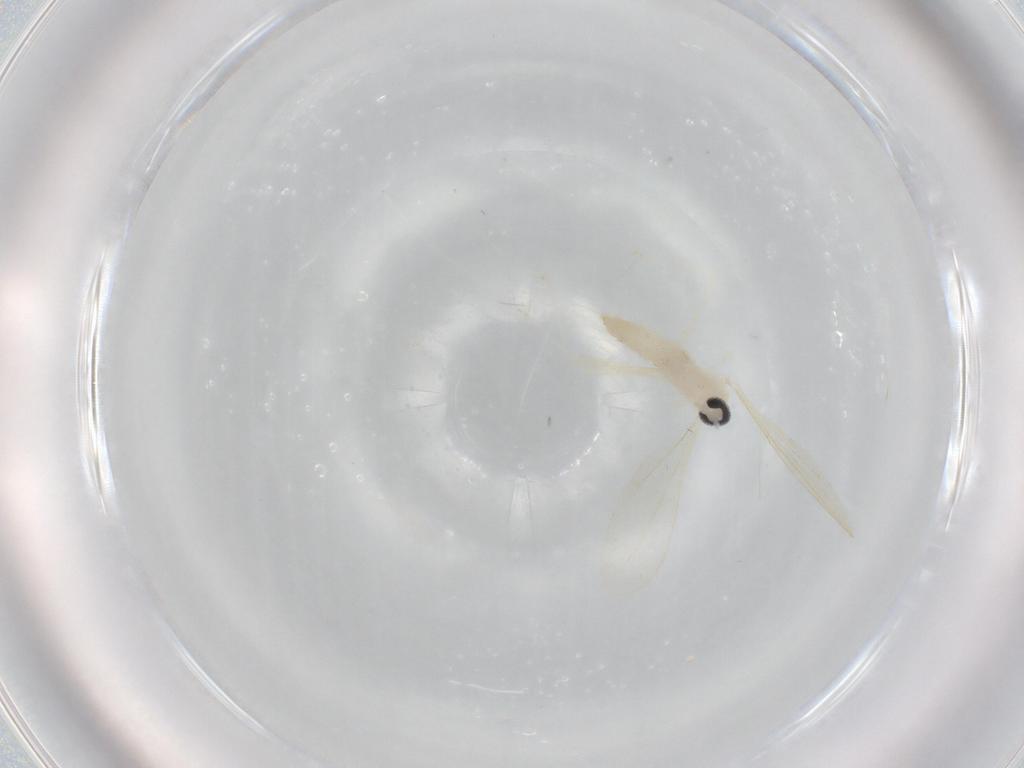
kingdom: Animalia
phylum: Arthropoda
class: Insecta
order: Diptera
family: Cecidomyiidae
